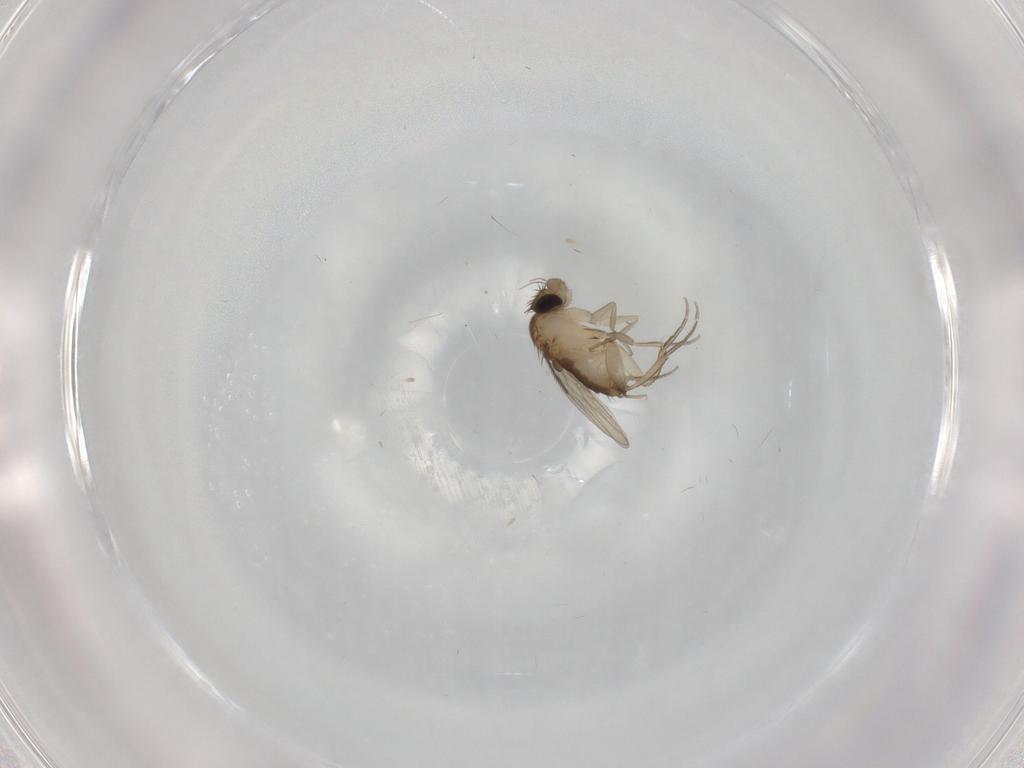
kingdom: Animalia
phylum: Arthropoda
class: Insecta
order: Diptera
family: Phoridae
